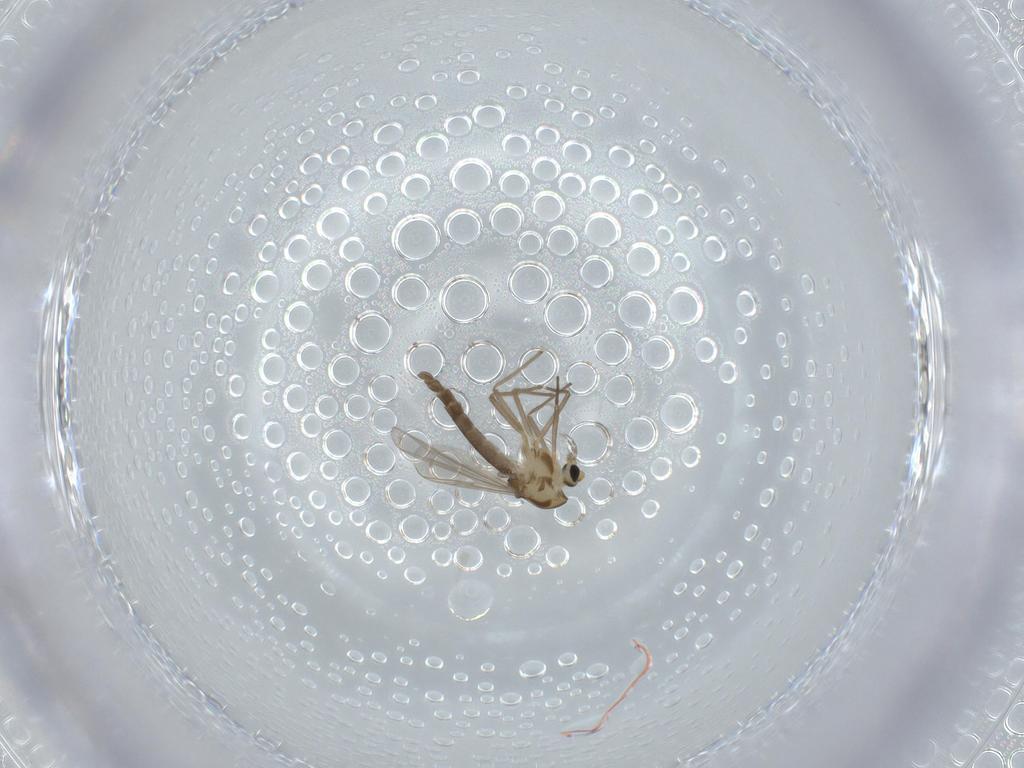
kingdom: Animalia
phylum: Arthropoda
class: Insecta
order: Diptera
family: Chironomidae
